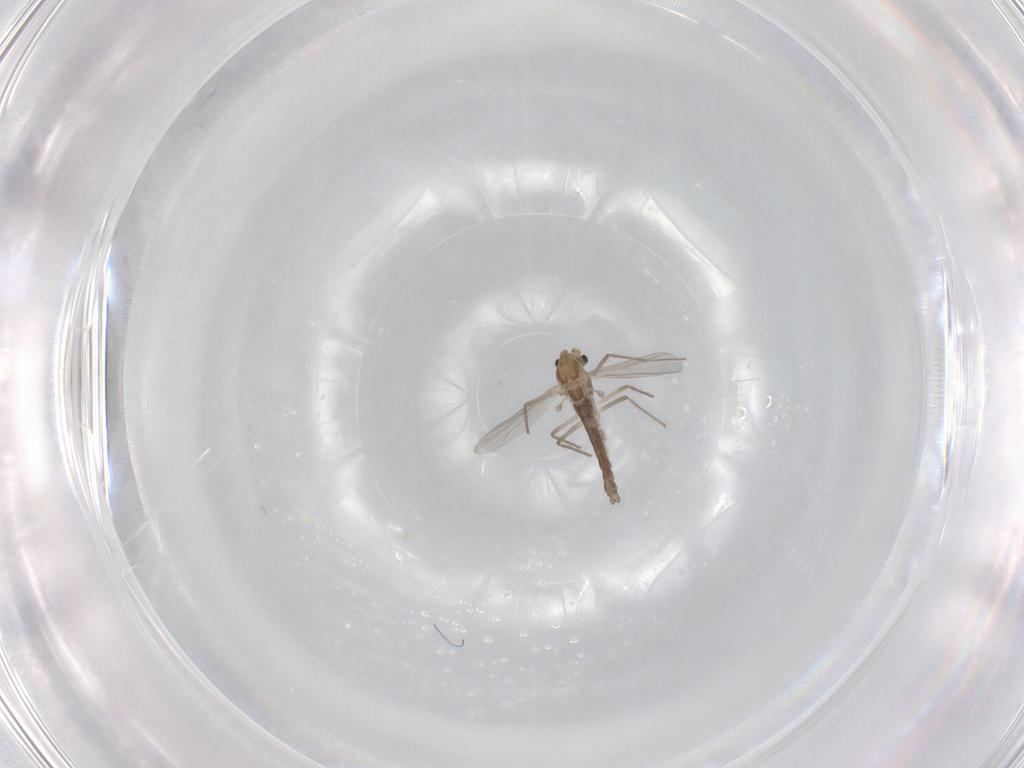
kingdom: Animalia
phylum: Arthropoda
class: Insecta
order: Diptera
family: Chironomidae
